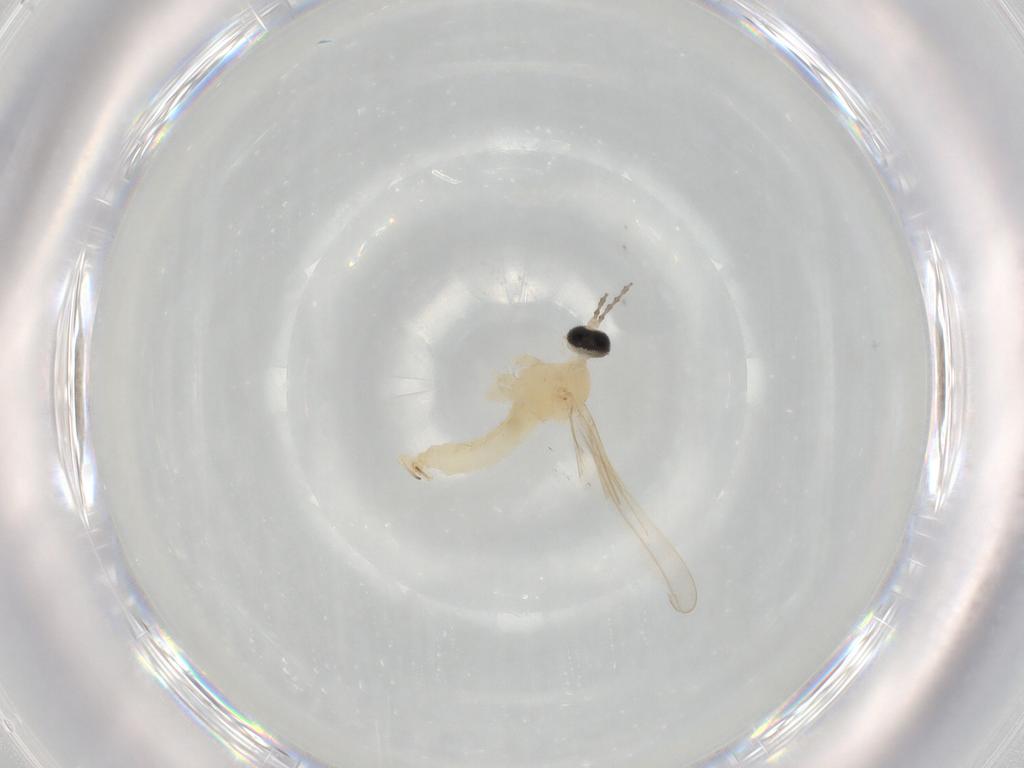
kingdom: Animalia
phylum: Arthropoda
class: Insecta
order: Diptera
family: Cecidomyiidae
